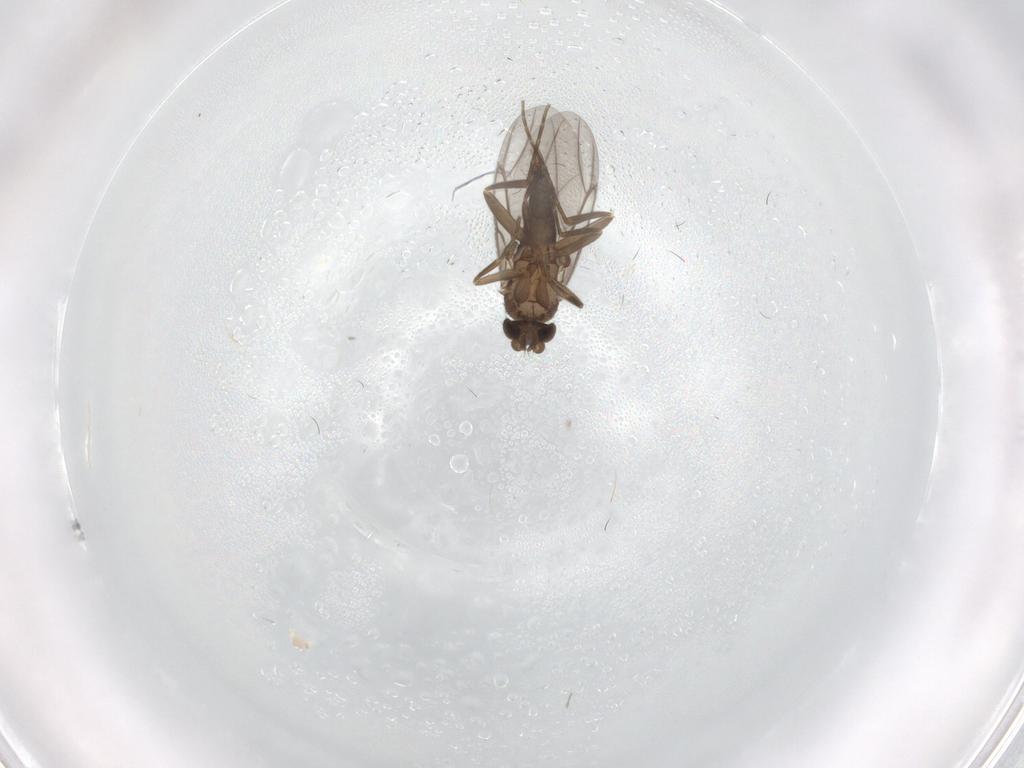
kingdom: Animalia
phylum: Arthropoda
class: Insecta
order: Diptera
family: Phoridae
